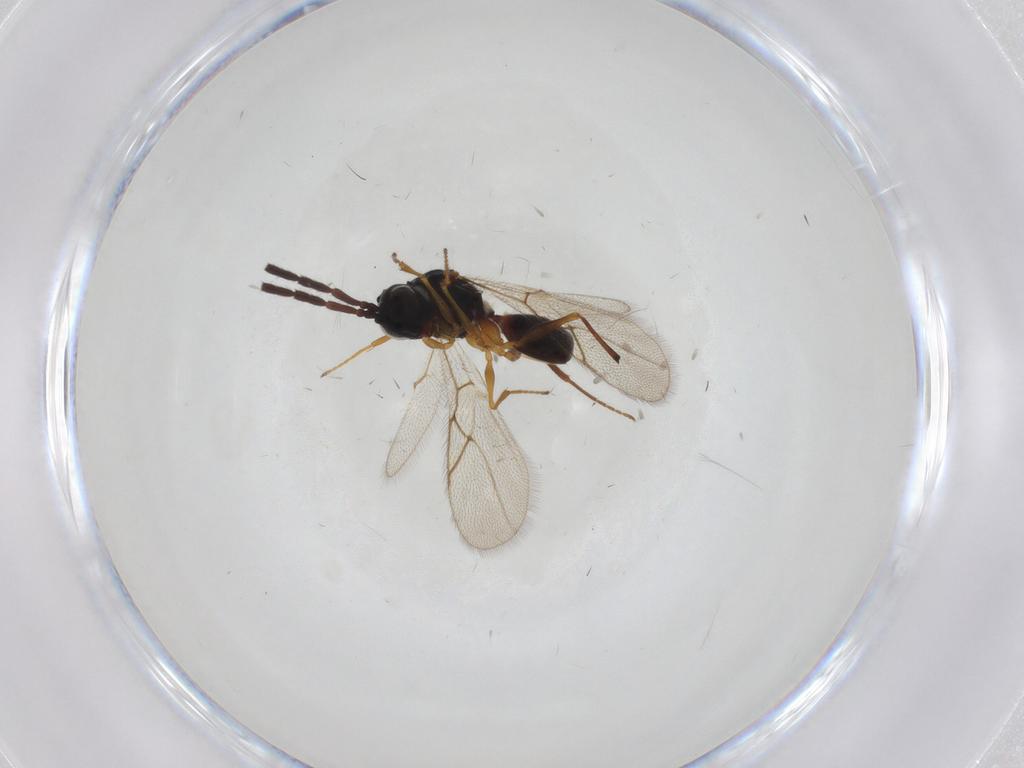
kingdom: Animalia
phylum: Arthropoda
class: Insecta
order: Hymenoptera
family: Figitidae
